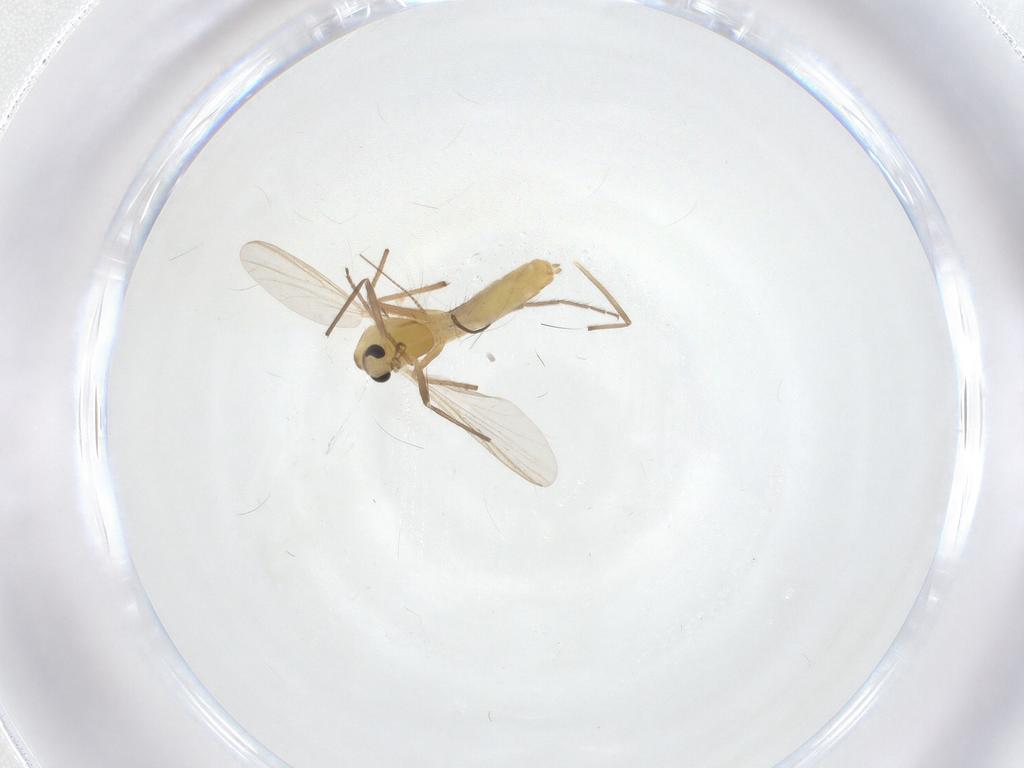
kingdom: Animalia
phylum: Arthropoda
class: Insecta
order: Diptera
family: Chironomidae
